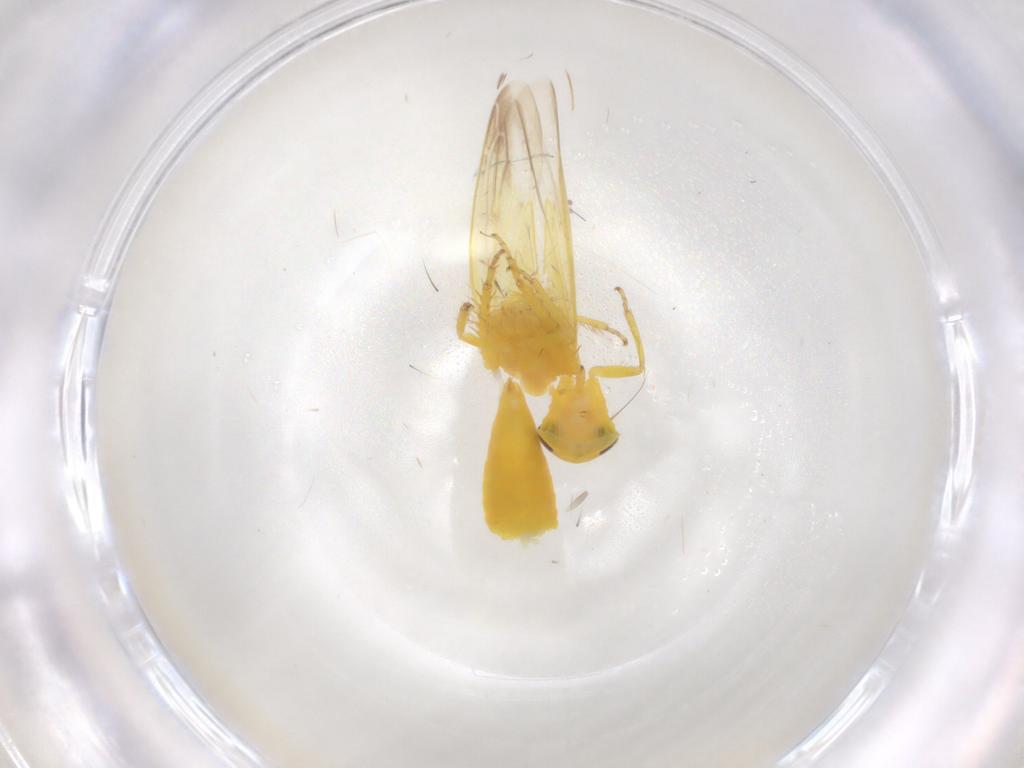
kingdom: Animalia
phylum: Arthropoda
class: Insecta
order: Hemiptera
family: Cicadellidae
